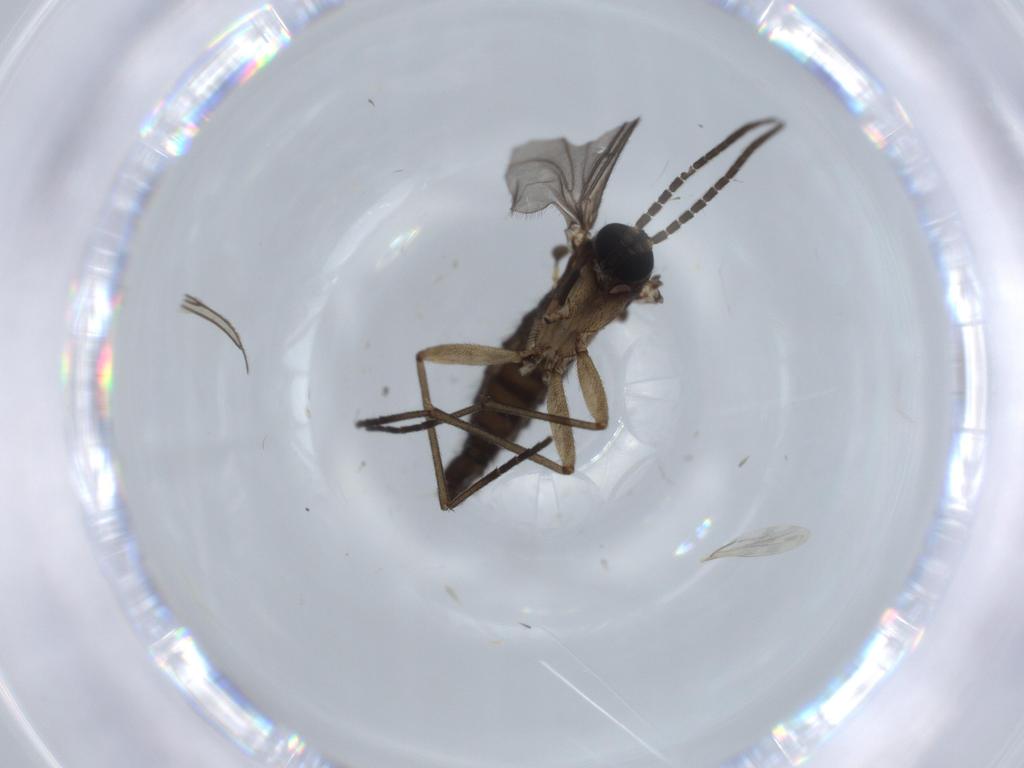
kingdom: Animalia
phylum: Arthropoda
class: Insecta
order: Diptera
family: Sciaridae
